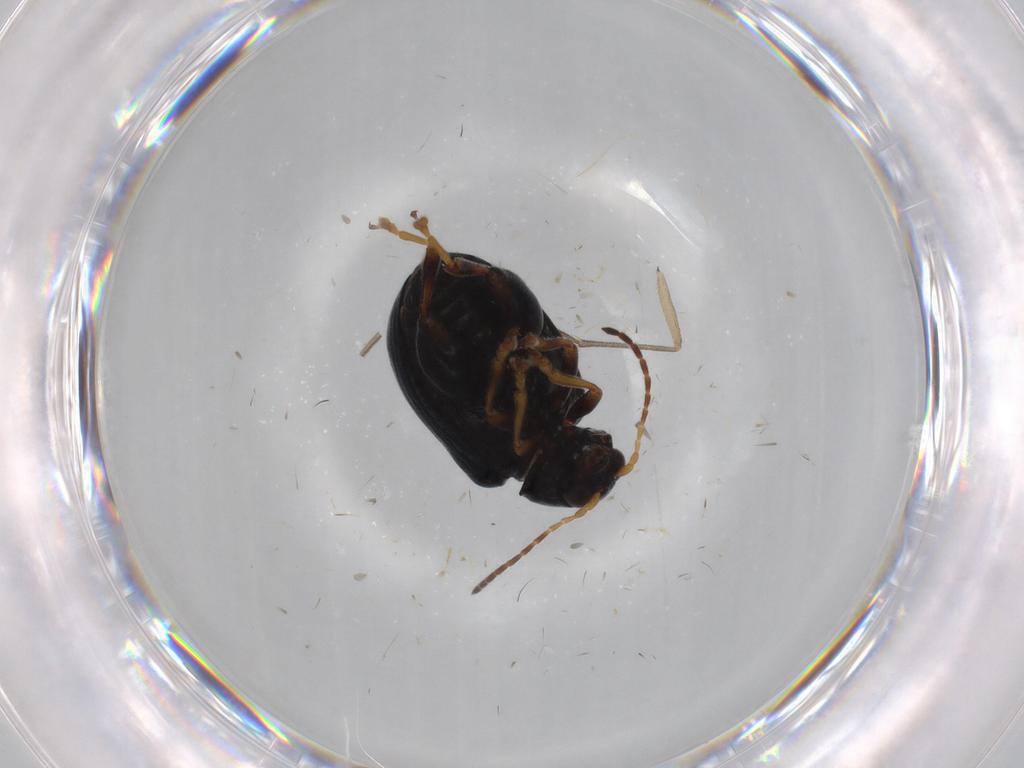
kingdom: Animalia
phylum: Arthropoda
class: Insecta
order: Coleoptera
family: Chrysomelidae
